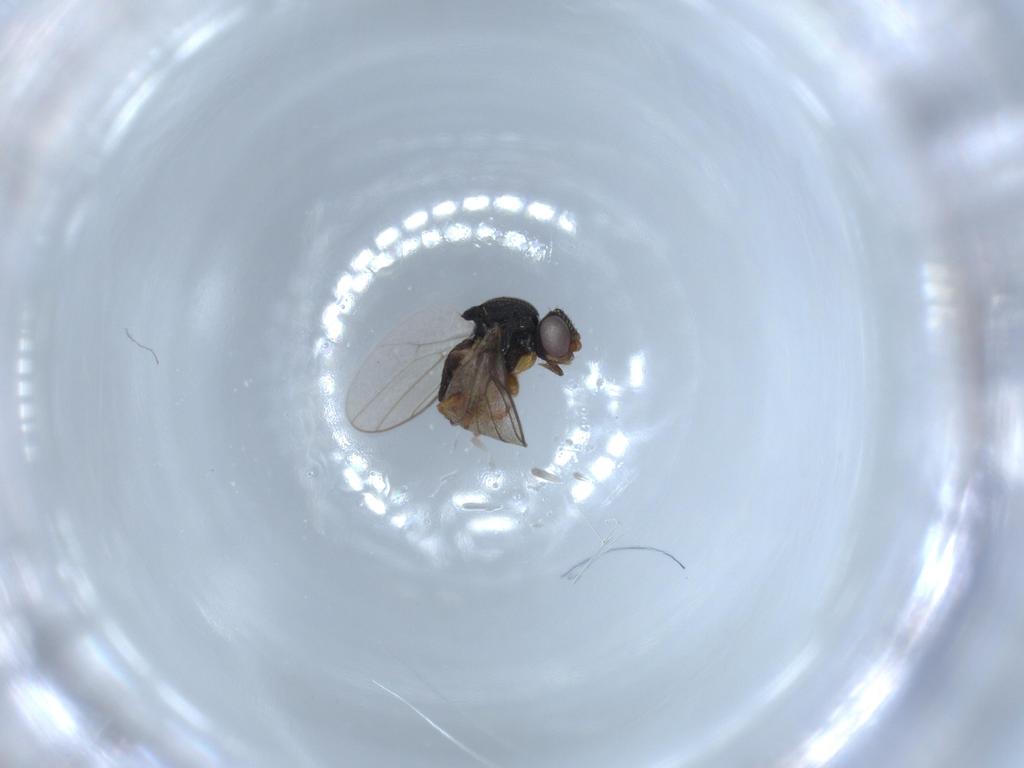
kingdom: Animalia
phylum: Arthropoda
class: Insecta
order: Diptera
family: Chloropidae
